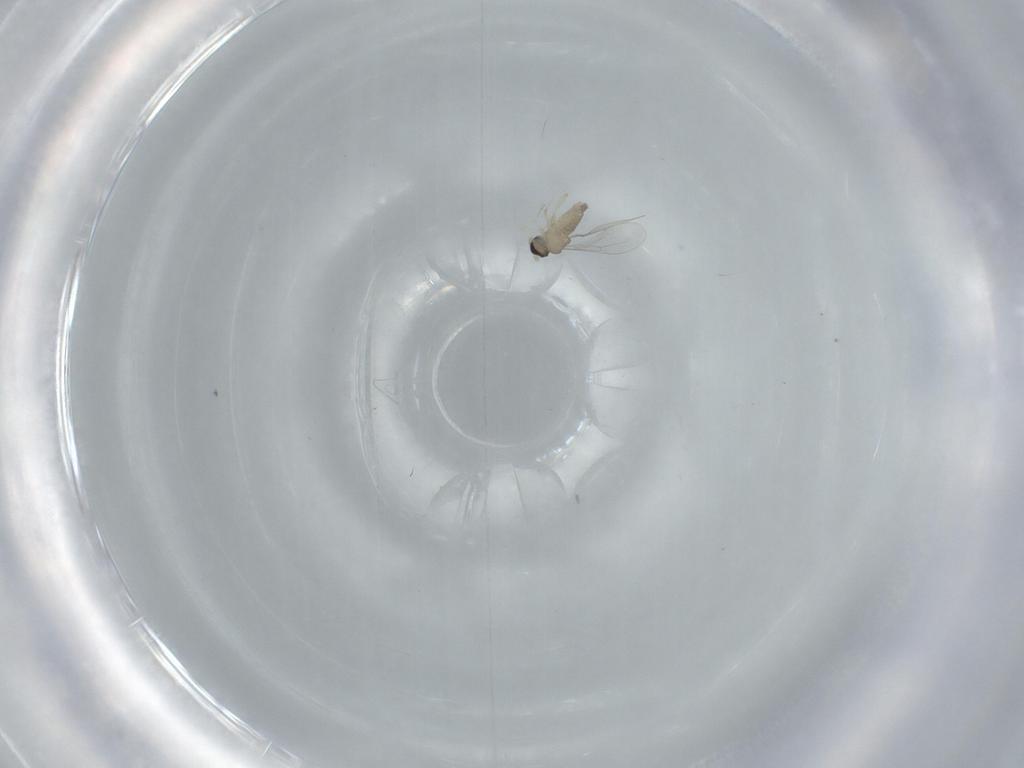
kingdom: Animalia
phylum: Arthropoda
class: Insecta
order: Diptera
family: Cecidomyiidae
